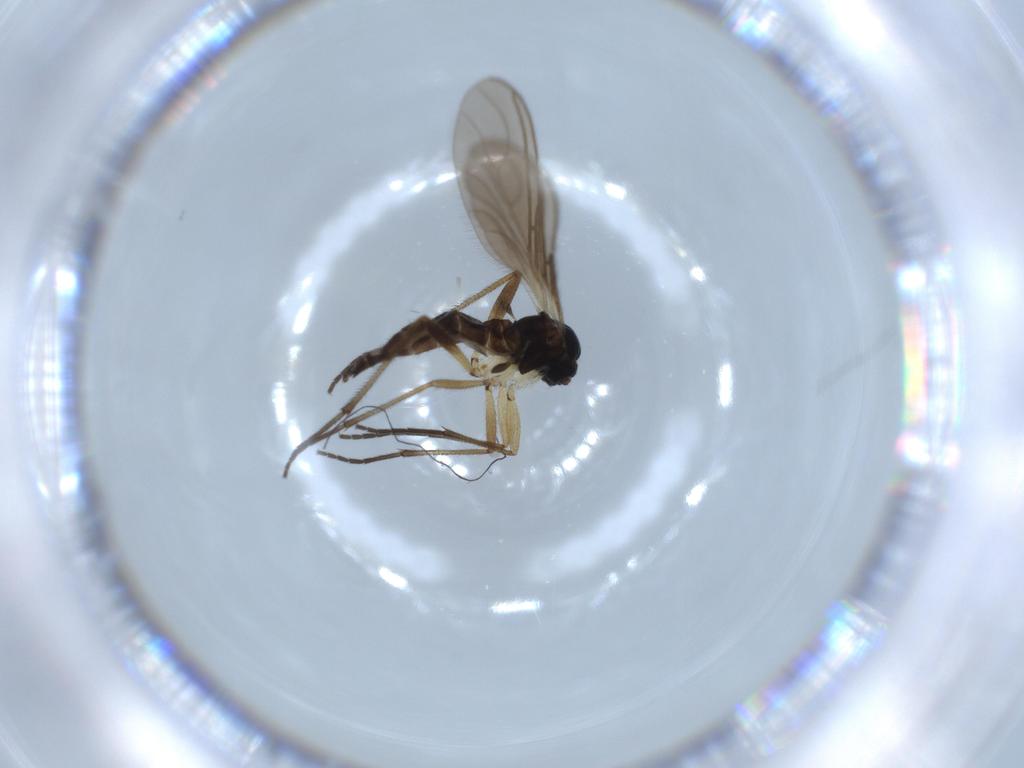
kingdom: Animalia
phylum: Arthropoda
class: Insecta
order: Diptera
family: Sciaridae
